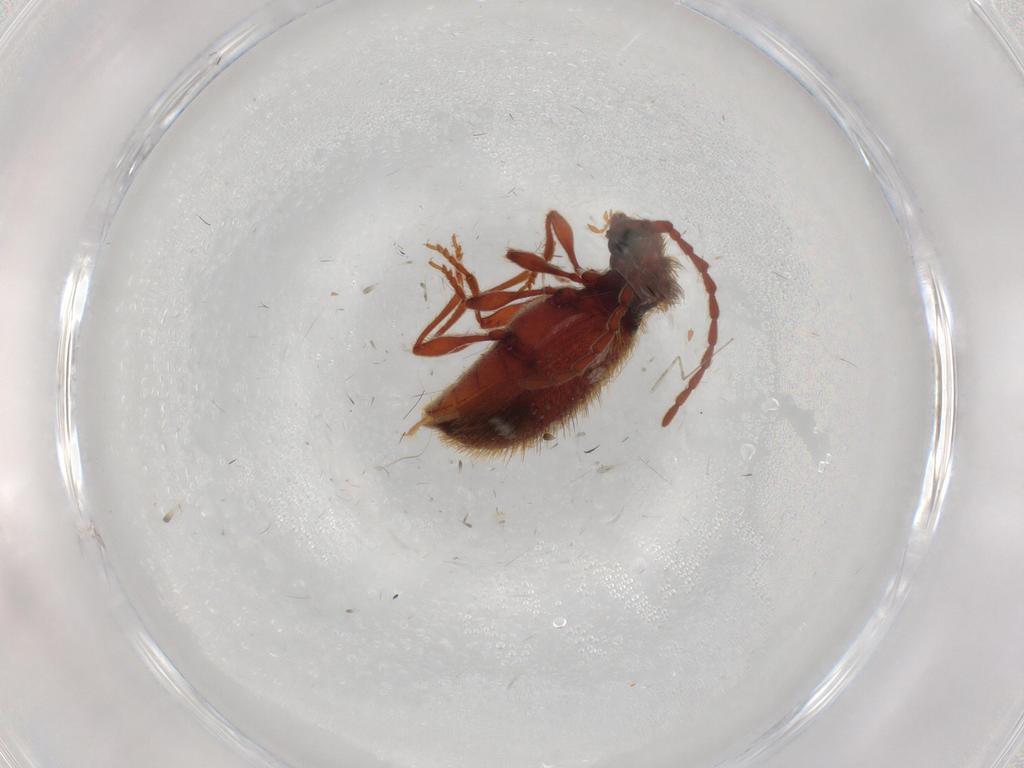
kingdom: Animalia
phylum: Arthropoda
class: Insecta
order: Coleoptera
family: Ptinidae
